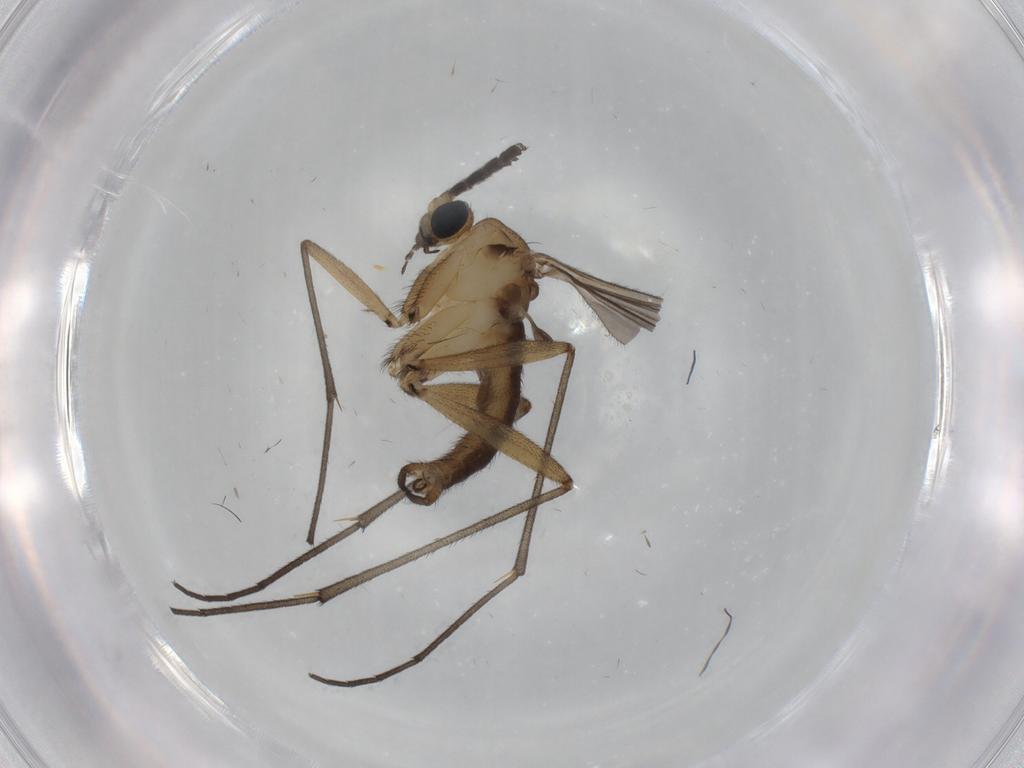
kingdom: Animalia
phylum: Arthropoda
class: Insecta
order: Diptera
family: Sciaridae
